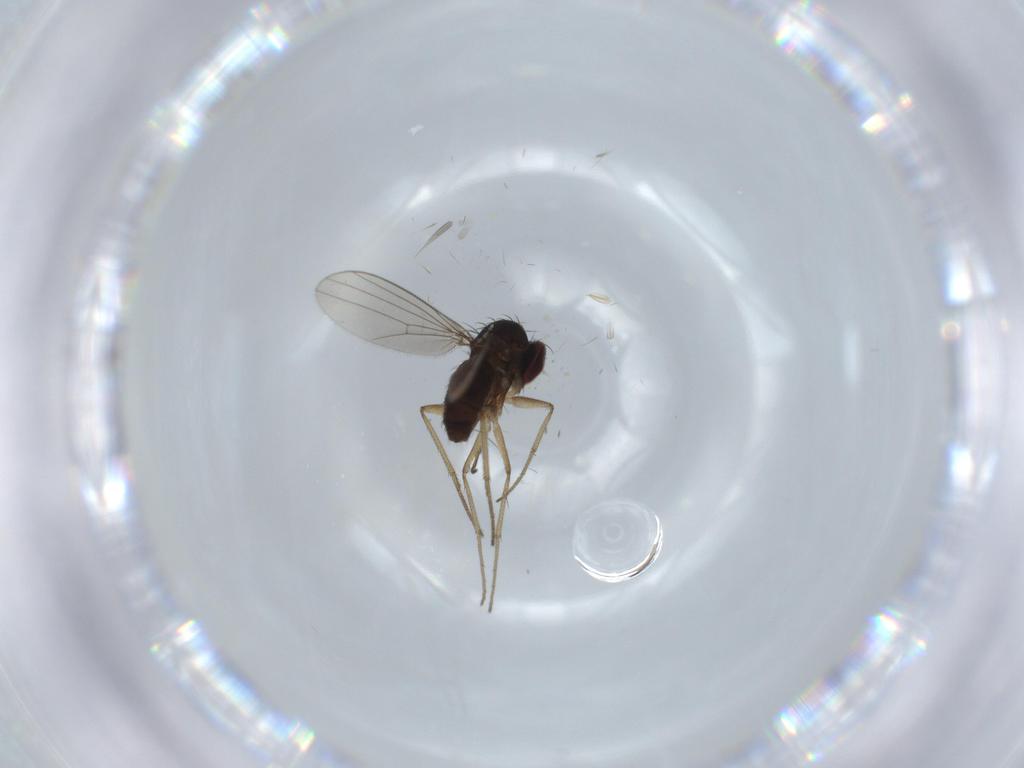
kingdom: Animalia
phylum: Arthropoda
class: Insecta
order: Diptera
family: Dolichopodidae
